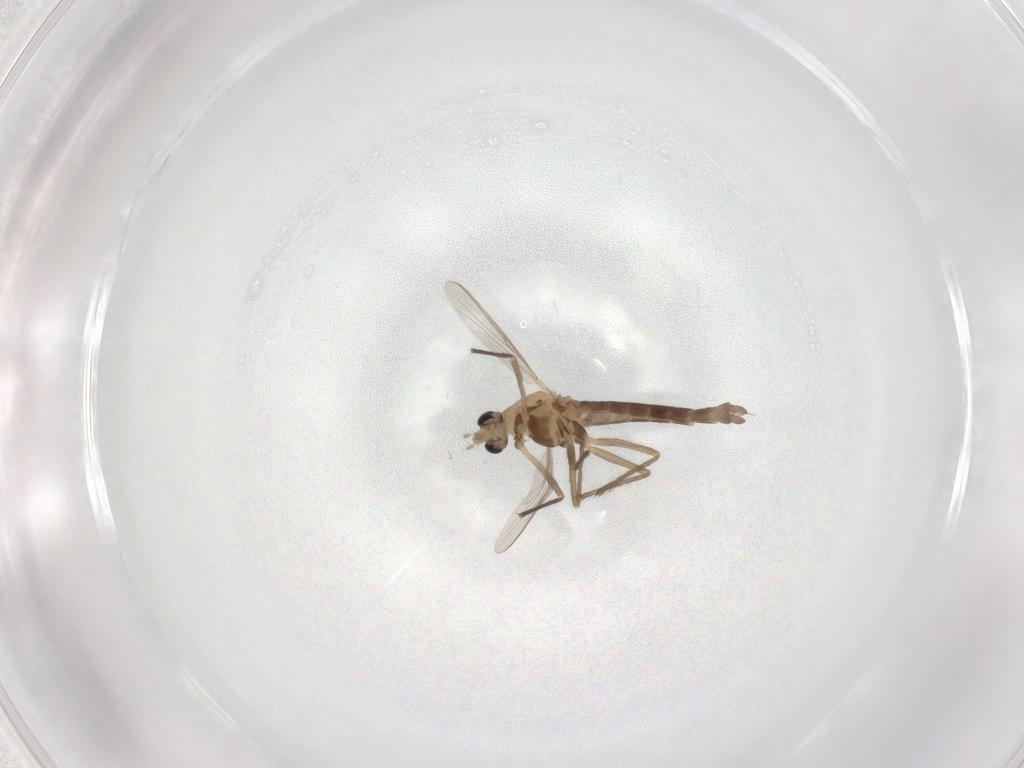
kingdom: Animalia
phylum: Arthropoda
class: Insecta
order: Diptera
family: Chironomidae
